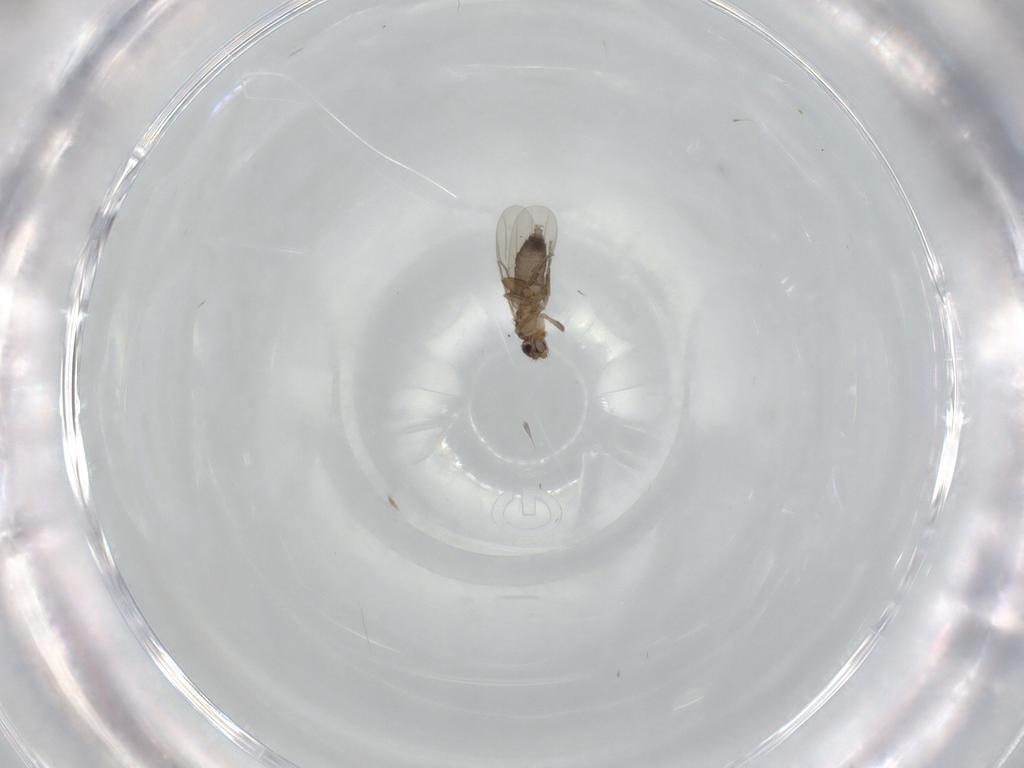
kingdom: Animalia
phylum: Arthropoda
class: Insecta
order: Diptera
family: Phoridae
